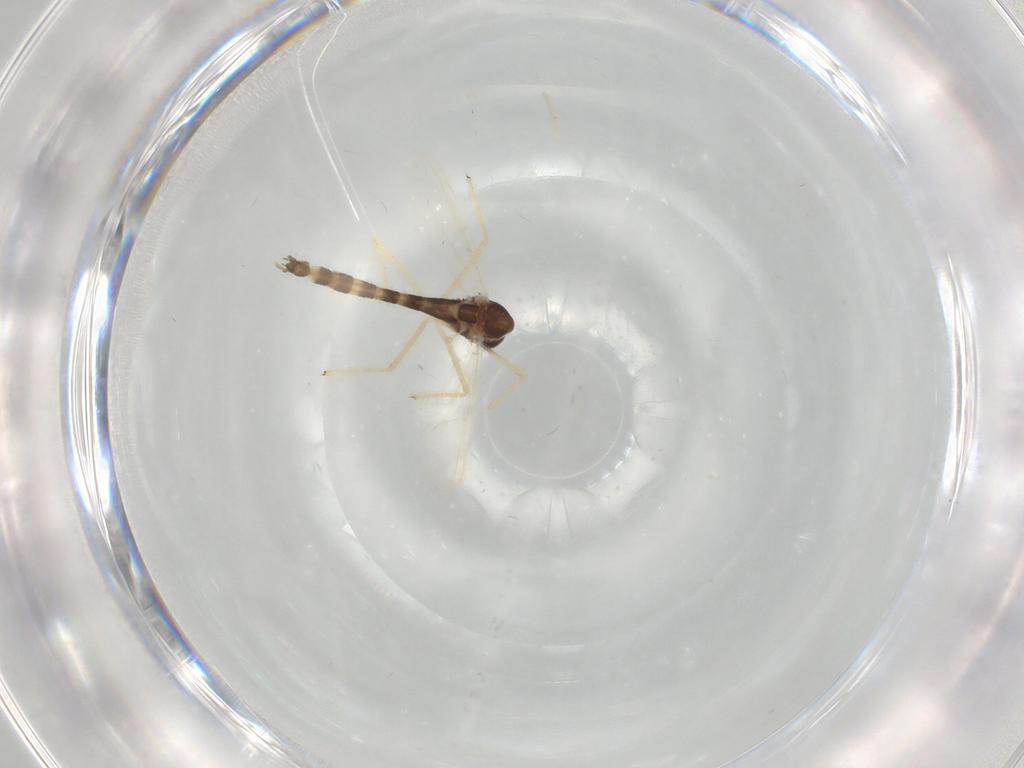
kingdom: Animalia
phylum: Arthropoda
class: Insecta
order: Diptera
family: Chironomidae
